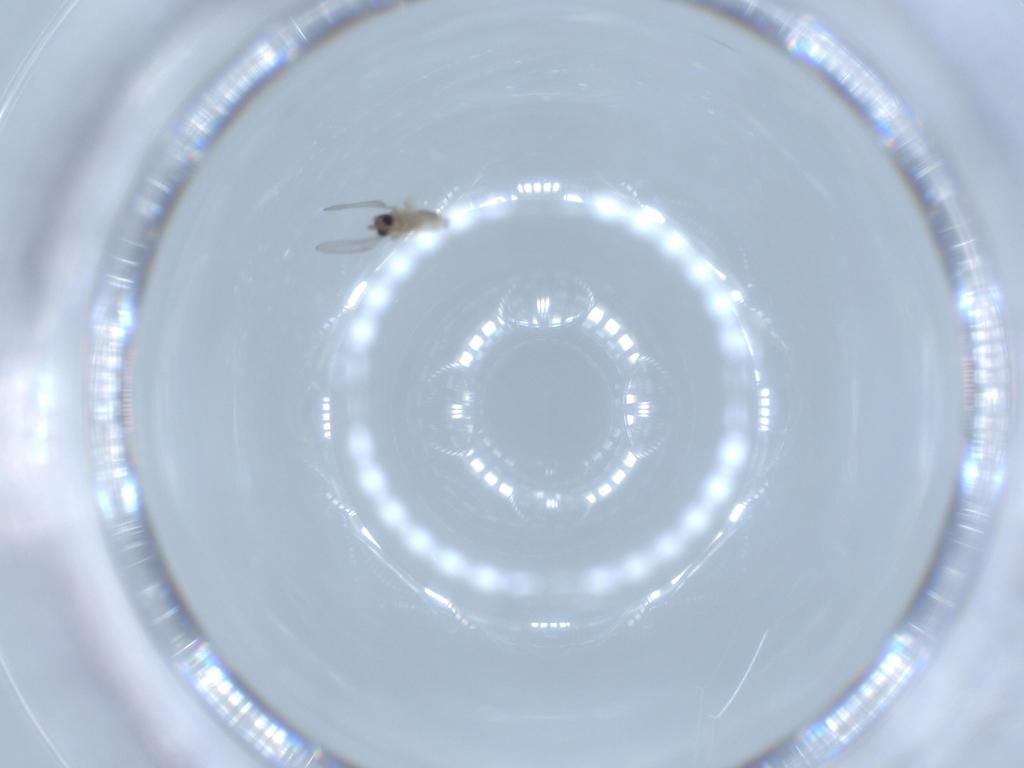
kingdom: Animalia
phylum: Arthropoda
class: Insecta
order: Diptera
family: Cecidomyiidae
